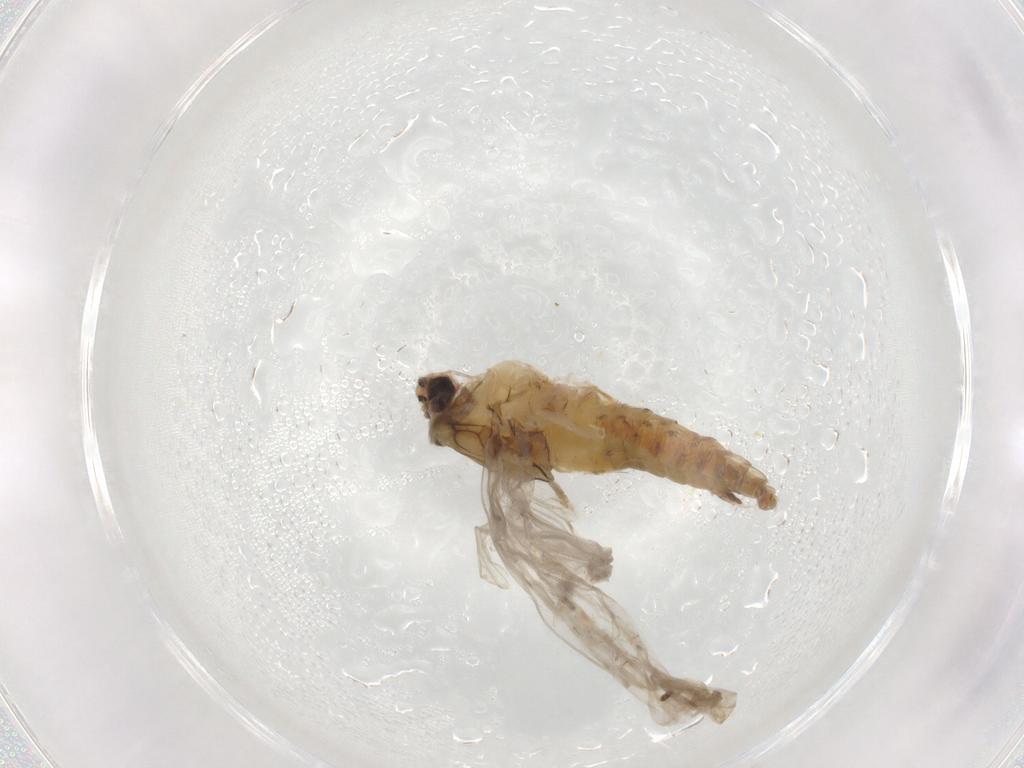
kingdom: Animalia
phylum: Arthropoda
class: Insecta
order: Ephemeroptera
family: Baetidae
